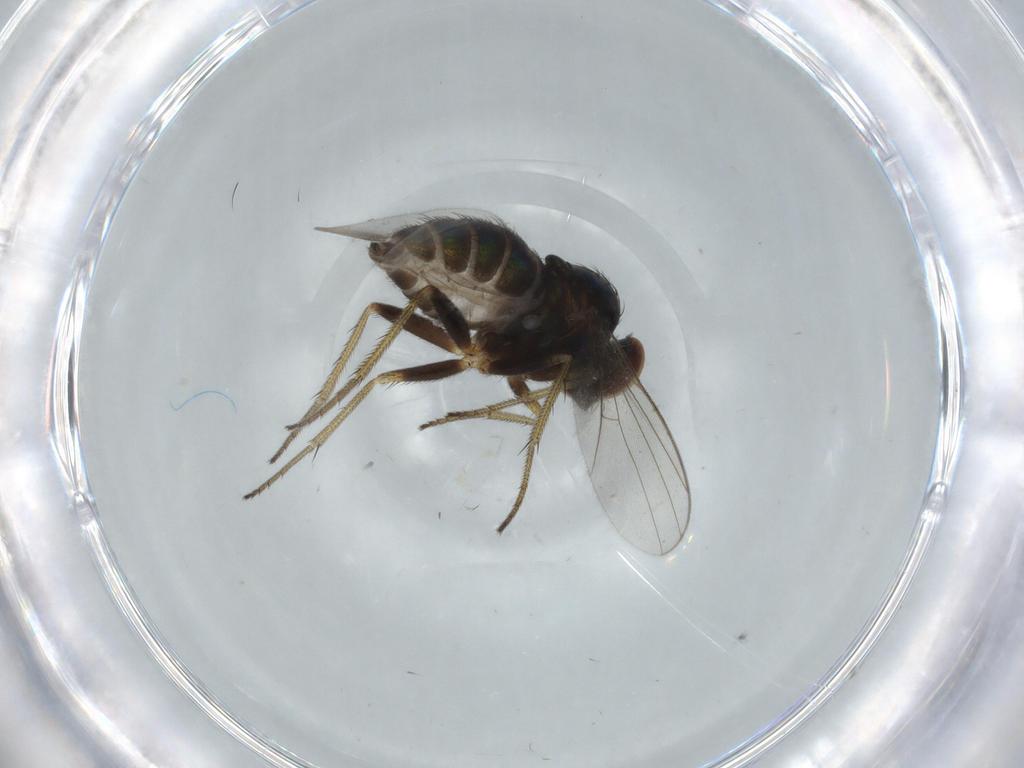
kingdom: Animalia
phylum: Arthropoda
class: Insecta
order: Diptera
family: Chironomidae
